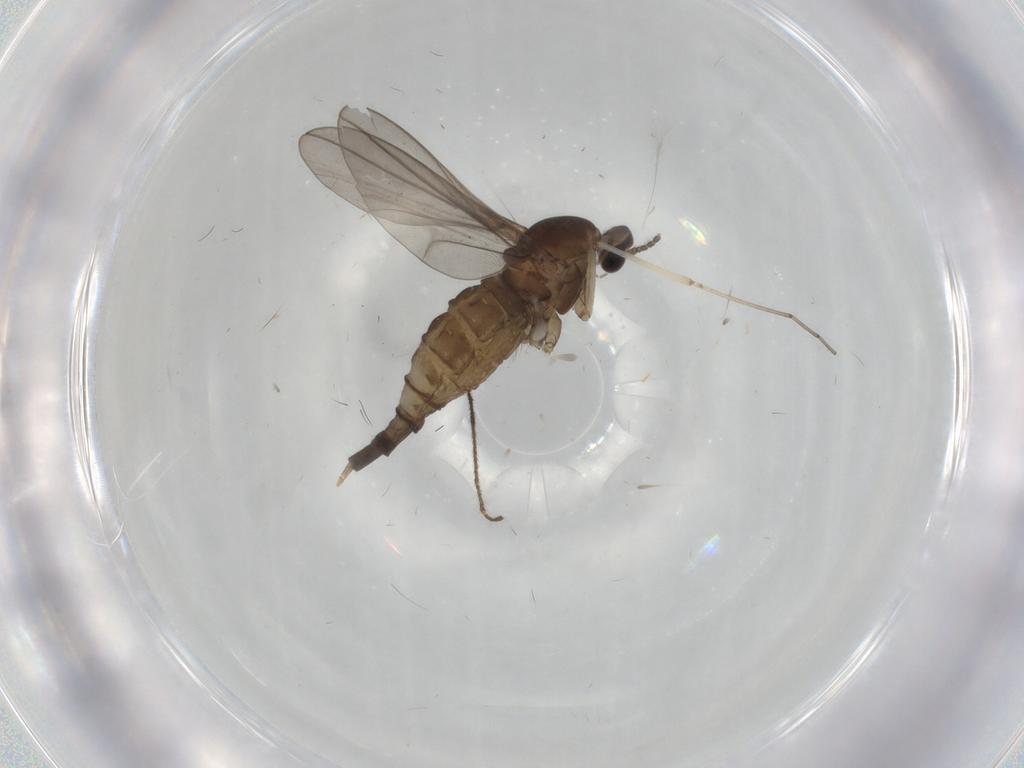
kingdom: Animalia
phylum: Arthropoda
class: Insecta
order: Diptera
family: Cecidomyiidae
